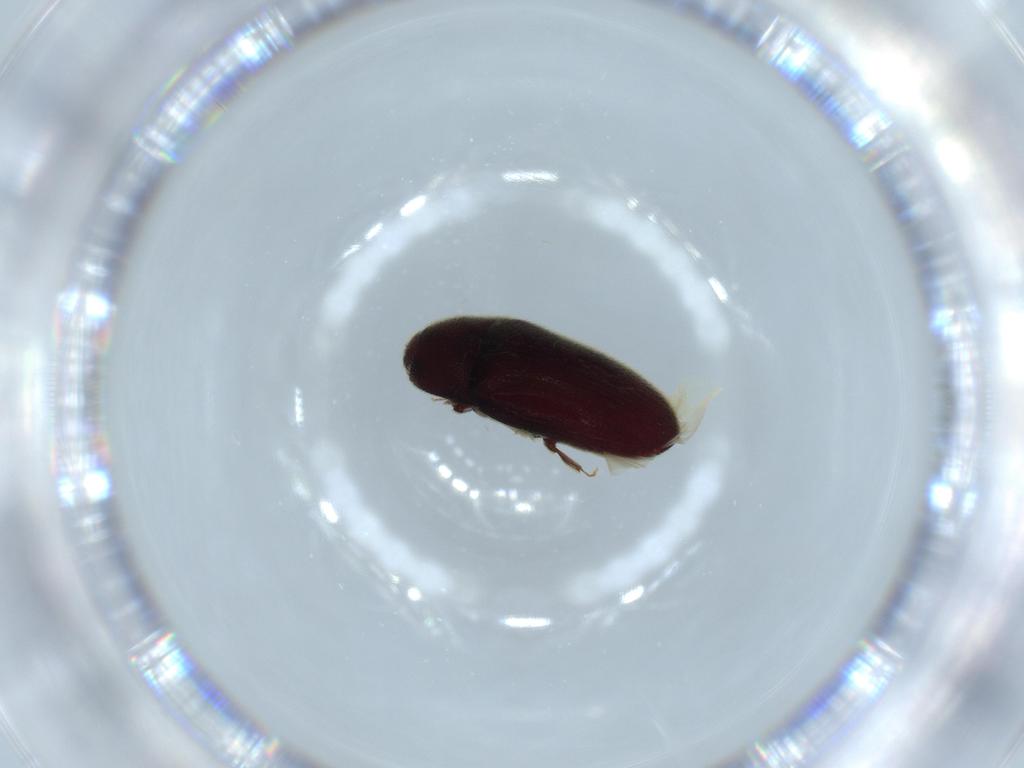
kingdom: Animalia
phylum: Arthropoda
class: Insecta
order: Coleoptera
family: Throscidae
